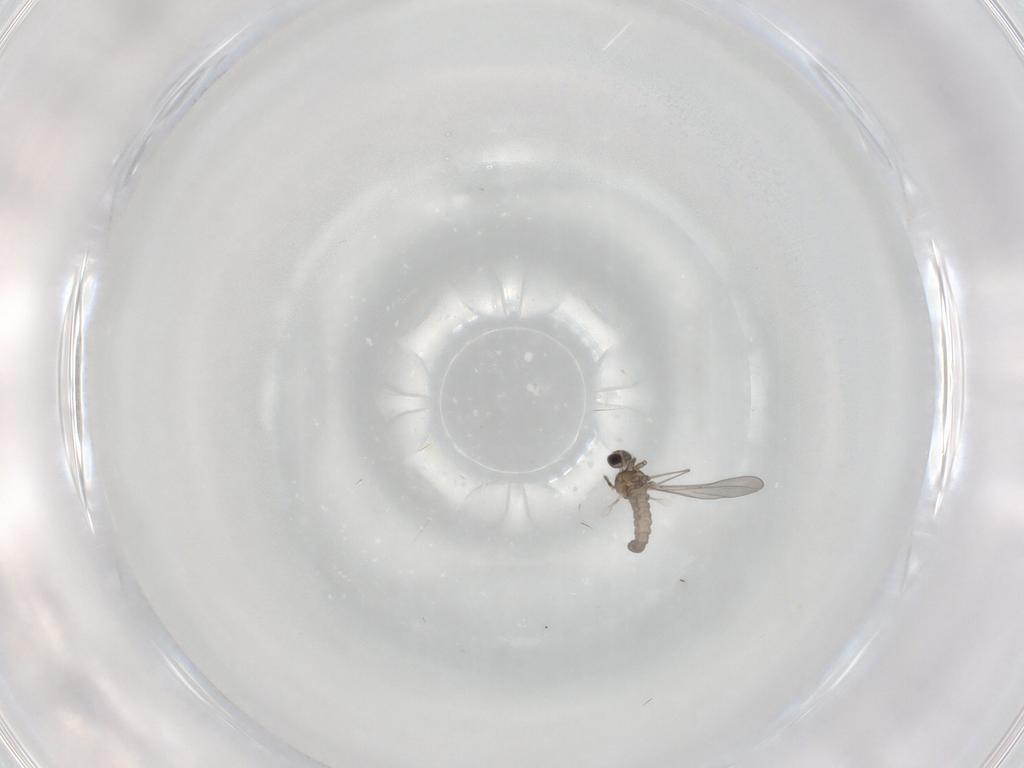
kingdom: Animalia
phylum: Arthropoda
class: Insecta
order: Diptera
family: Cecidomyiidae
